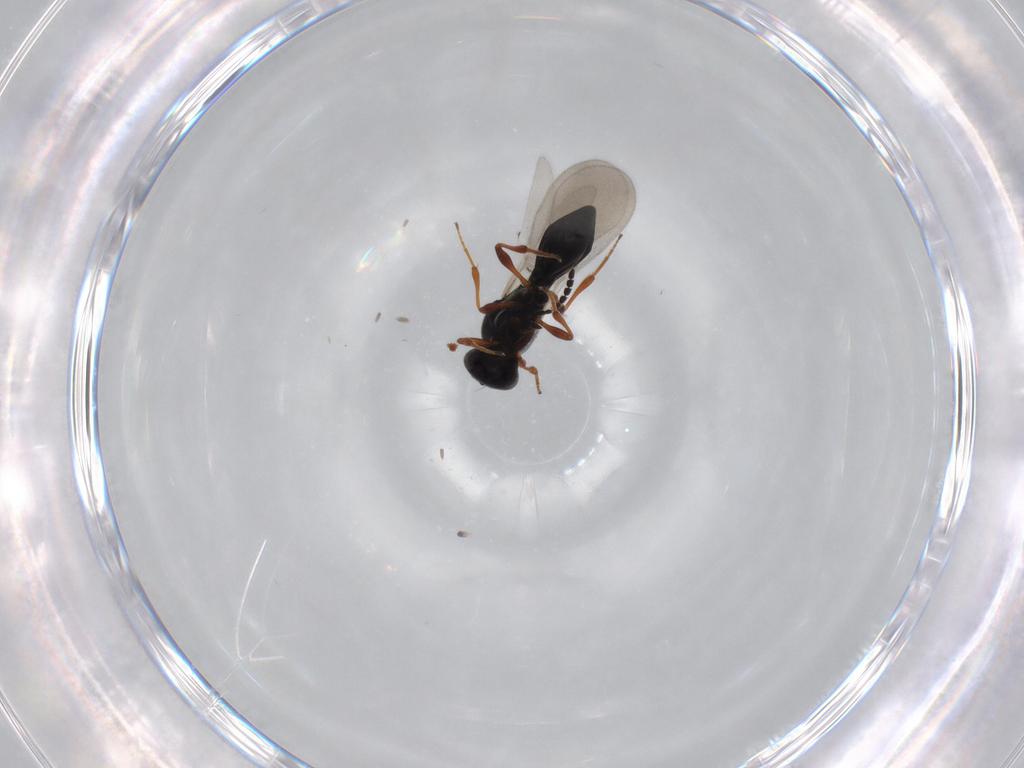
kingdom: Animalia
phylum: Arthropoda
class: Insecta
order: Hymenoptera
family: Platygastridae
